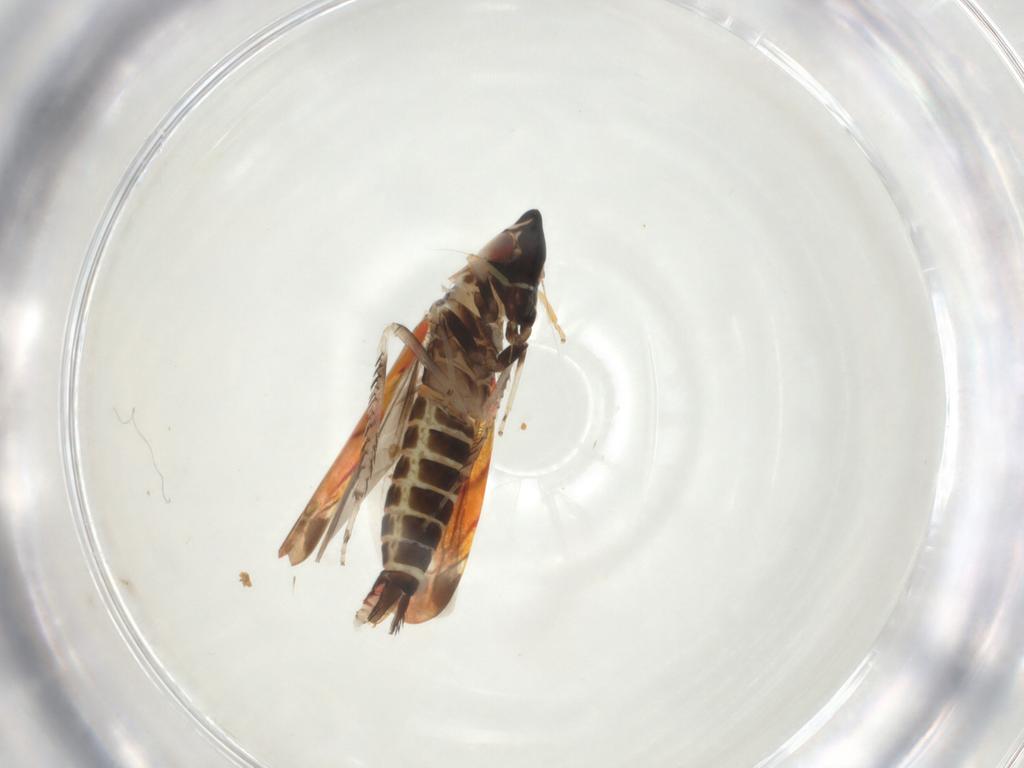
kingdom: Animalia
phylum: Arthropoda
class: Insecta
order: Hemiptera
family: Cicadellidae
